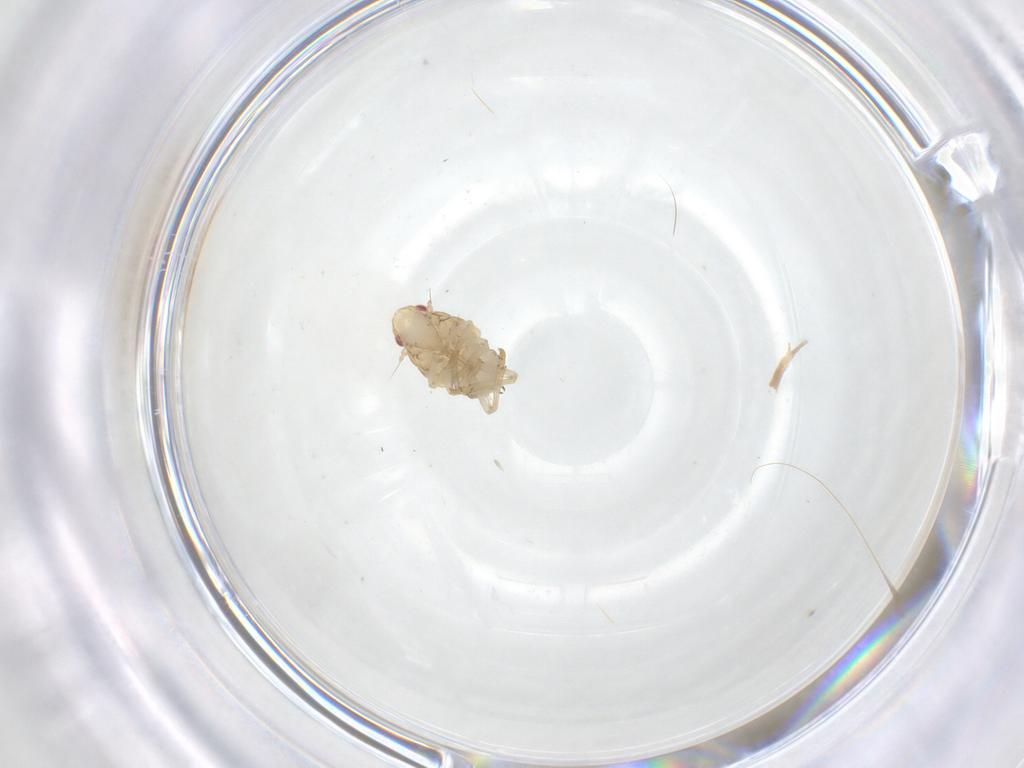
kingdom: Animalia
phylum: Arthropoda
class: Insecta
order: Hemiptera
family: Ricaniidae
